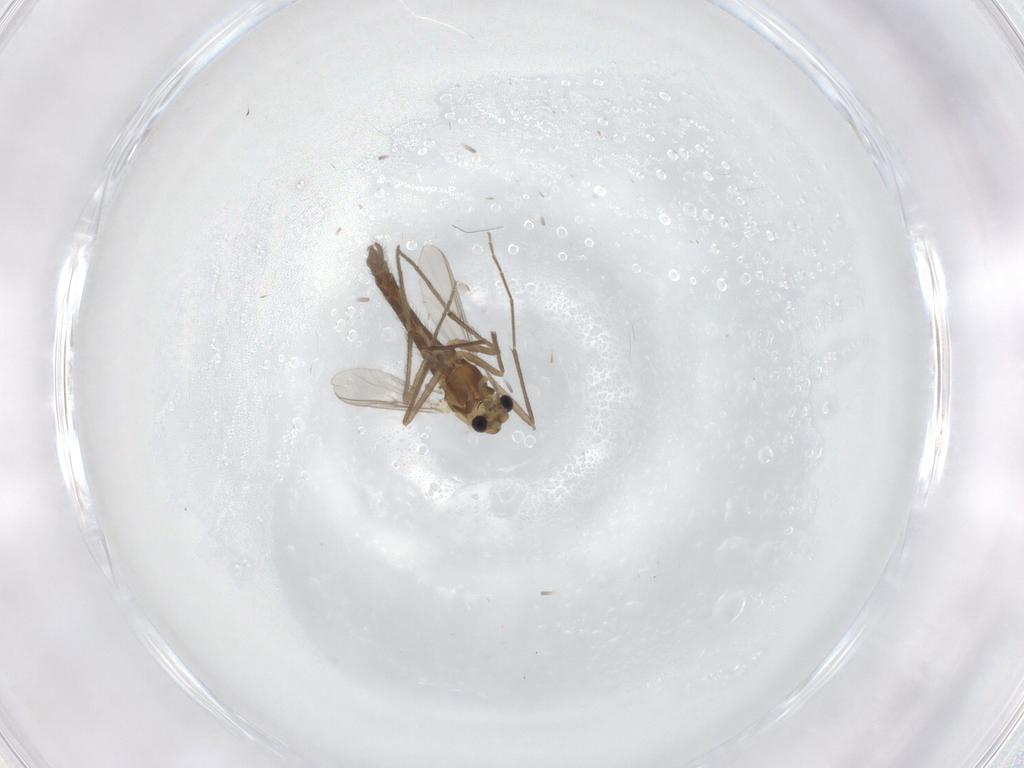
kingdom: Animalia
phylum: Arthropoda
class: Insecta
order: Diptera
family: Chironomidae
